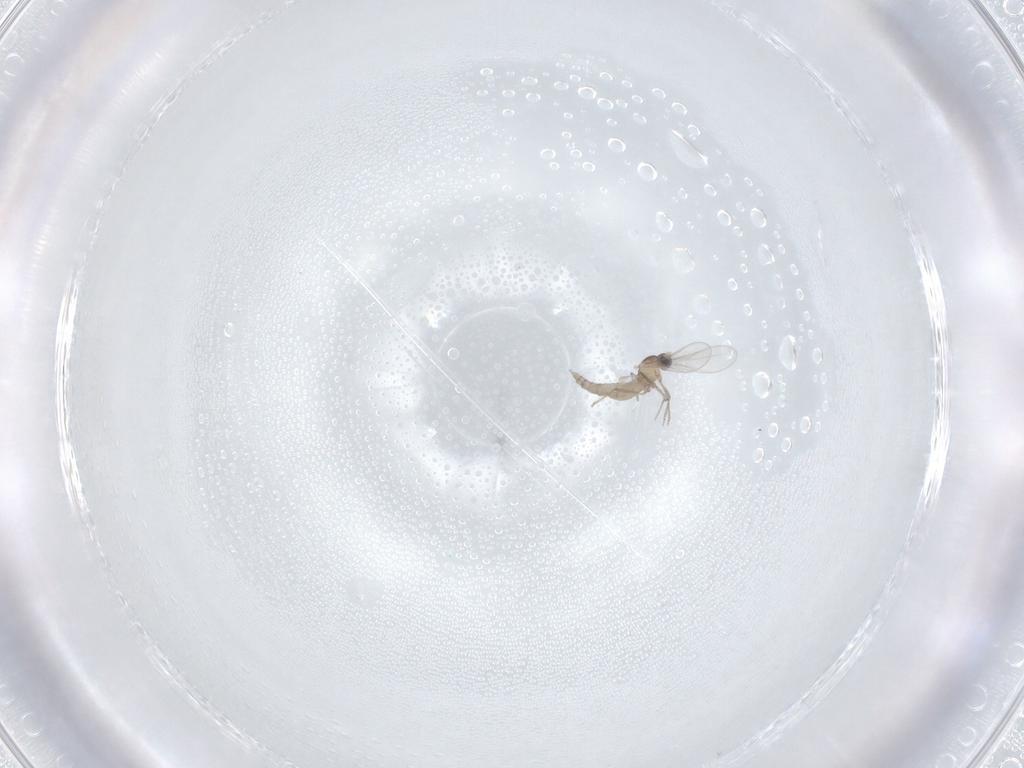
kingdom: Animalia
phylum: Arthropoda
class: Insecta
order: Diptera
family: Cecidomyiidae
